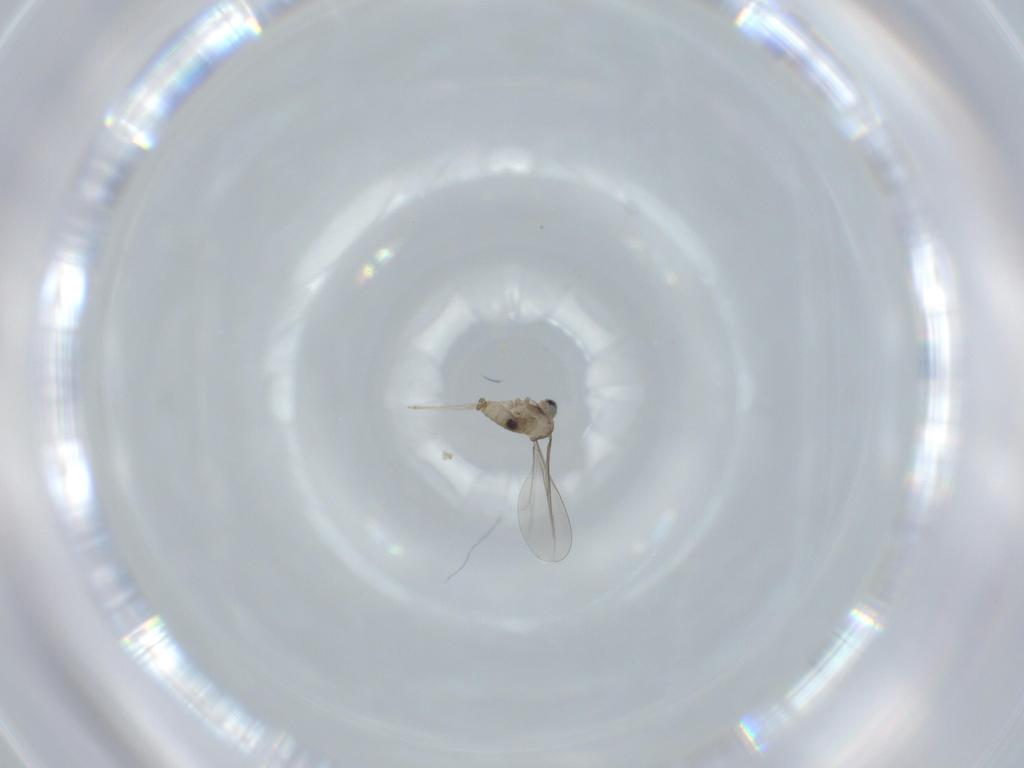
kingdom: Animalia
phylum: Arthropoda
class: Insecta
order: Diptera
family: Cecidomyiidae
